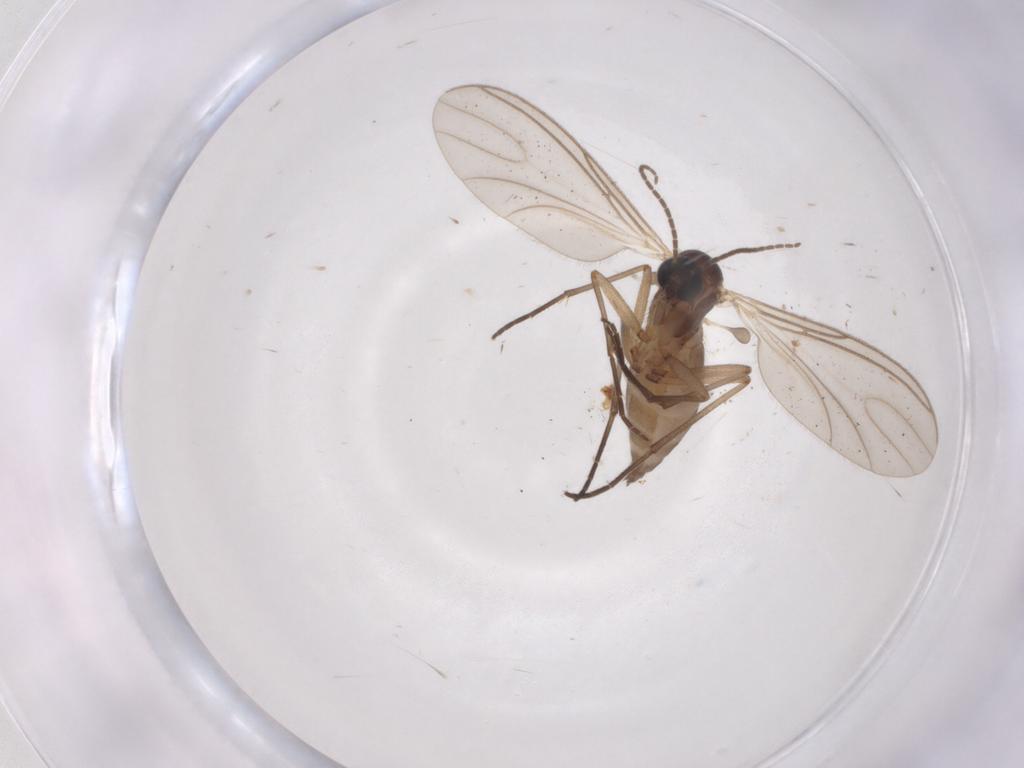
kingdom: Animalia
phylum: Arthropoda
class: Insecta
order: Diptera
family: Sciaridae
